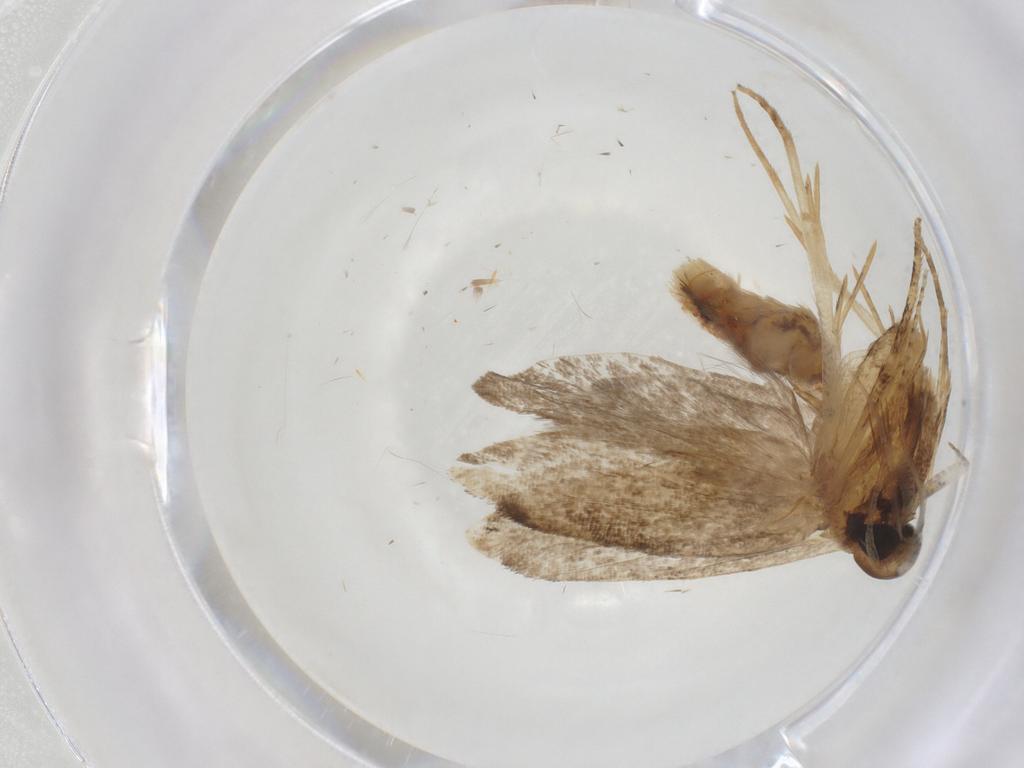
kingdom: Animalia
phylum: Arthropoda
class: Insecta
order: Lepidoptera
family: Gelechiidae
